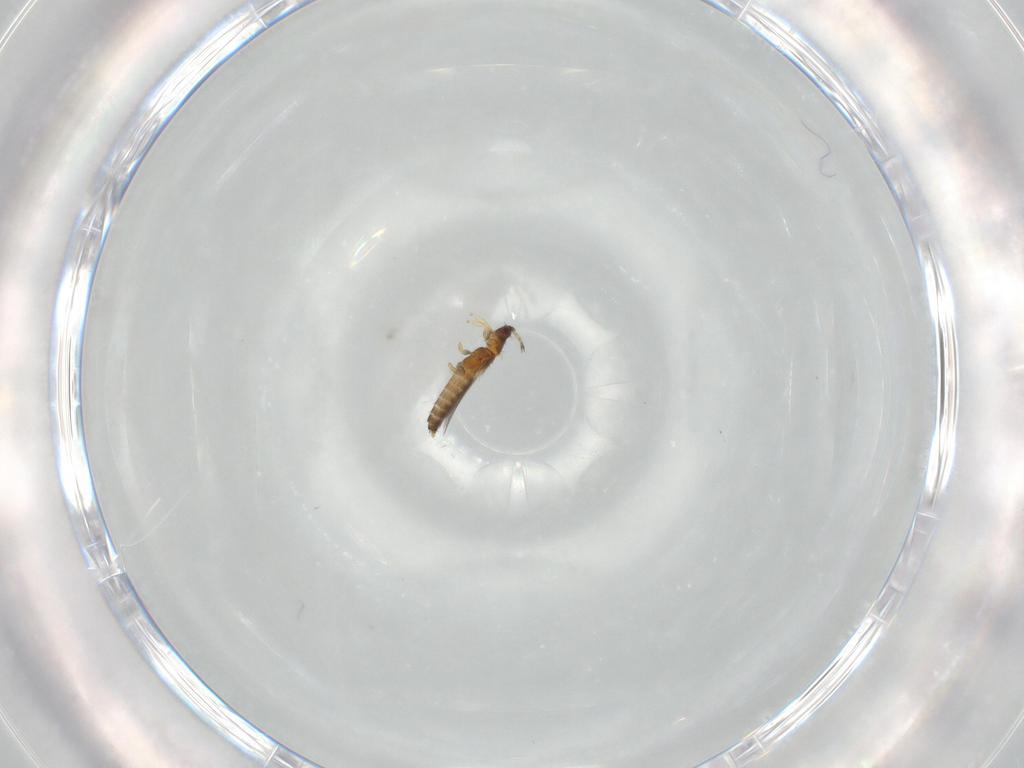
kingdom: Animalia
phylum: Arthropoda
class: Insecta
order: Thysanoptera
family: Thripidae
